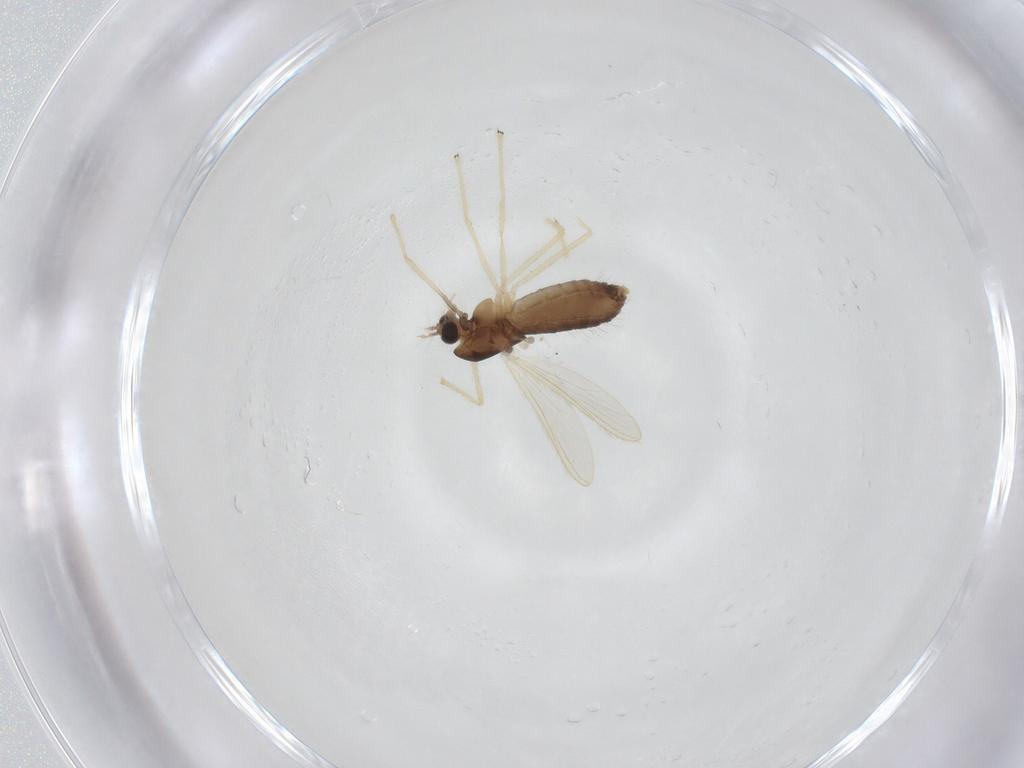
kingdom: Animalia
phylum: Arthropoda
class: Insecta
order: Diptera
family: Chironomidae
